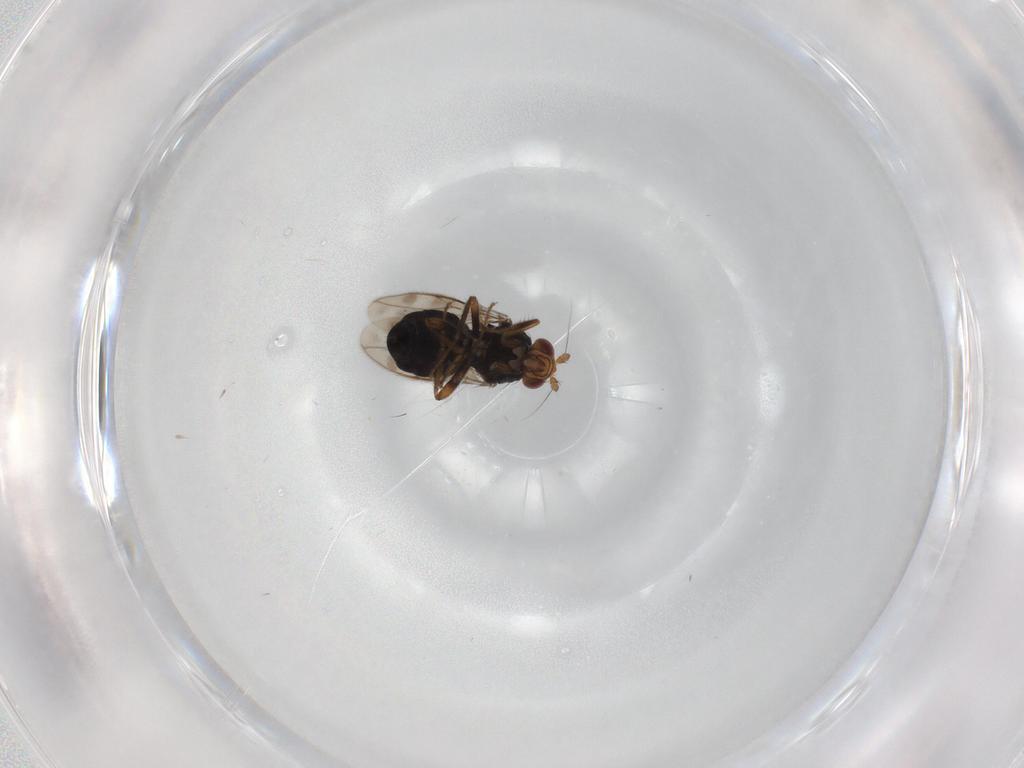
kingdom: Animalia
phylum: Arthropoda
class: Insecta
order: Diptera
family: Sphaeroceridae
